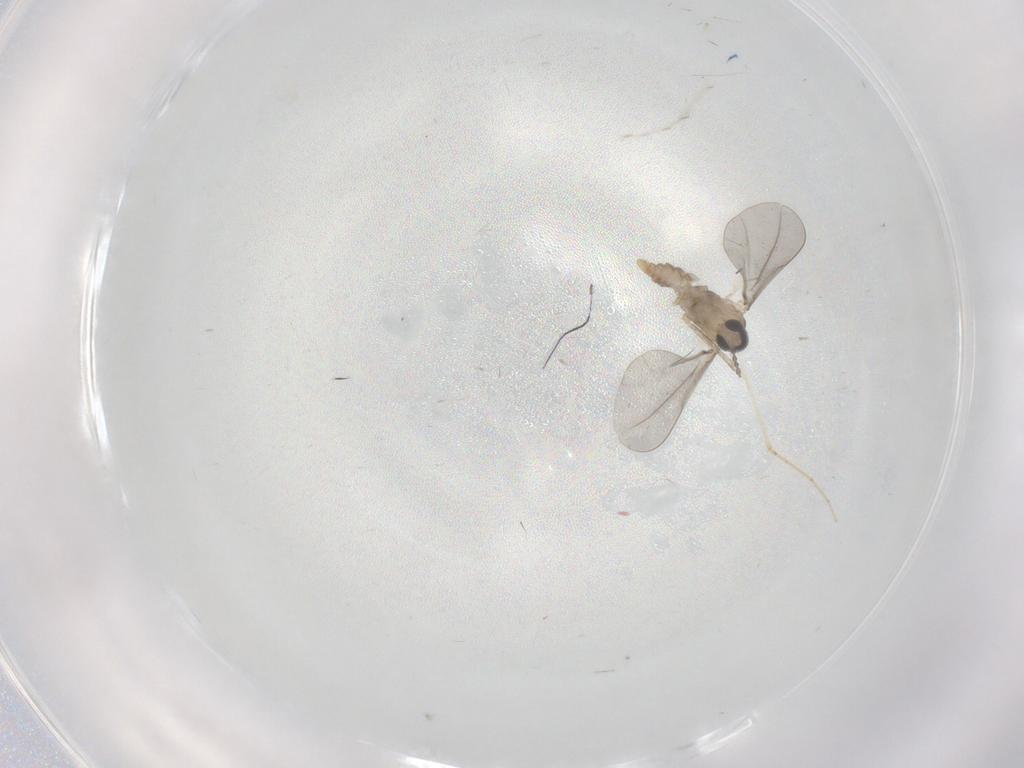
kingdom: Animalia
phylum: Arthropoda
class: Insecta
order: Diptera
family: Cecidomyiidae
